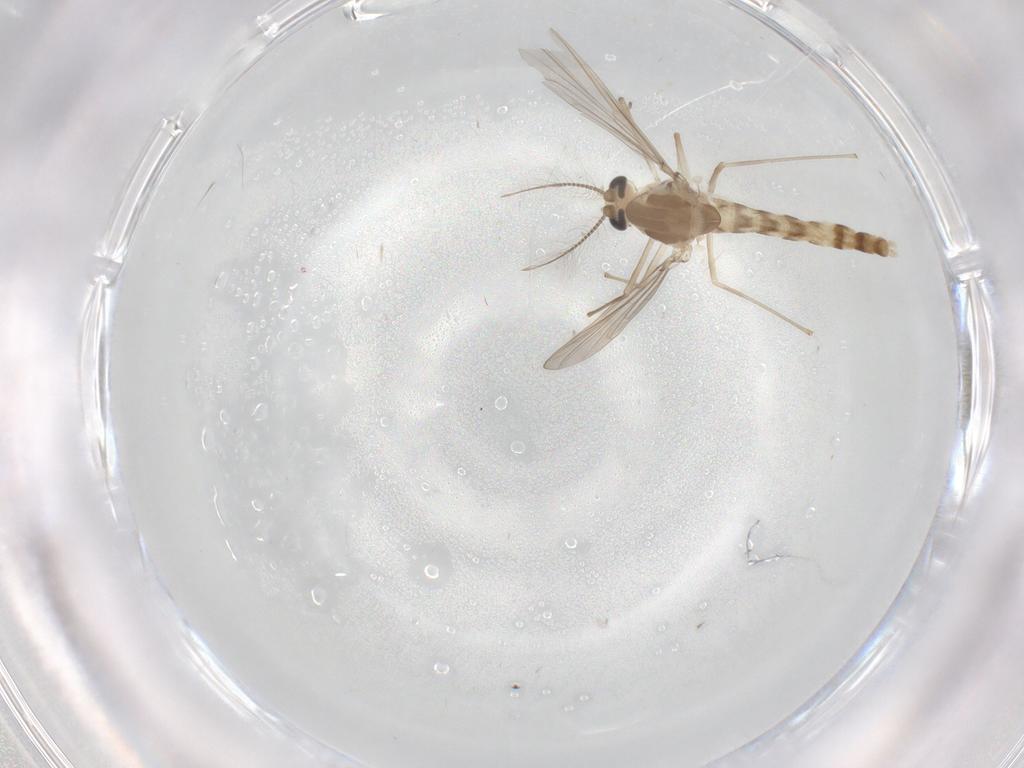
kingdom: Animalia
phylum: Arthropoda
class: Insecta
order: Diptera
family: Chironomidae
